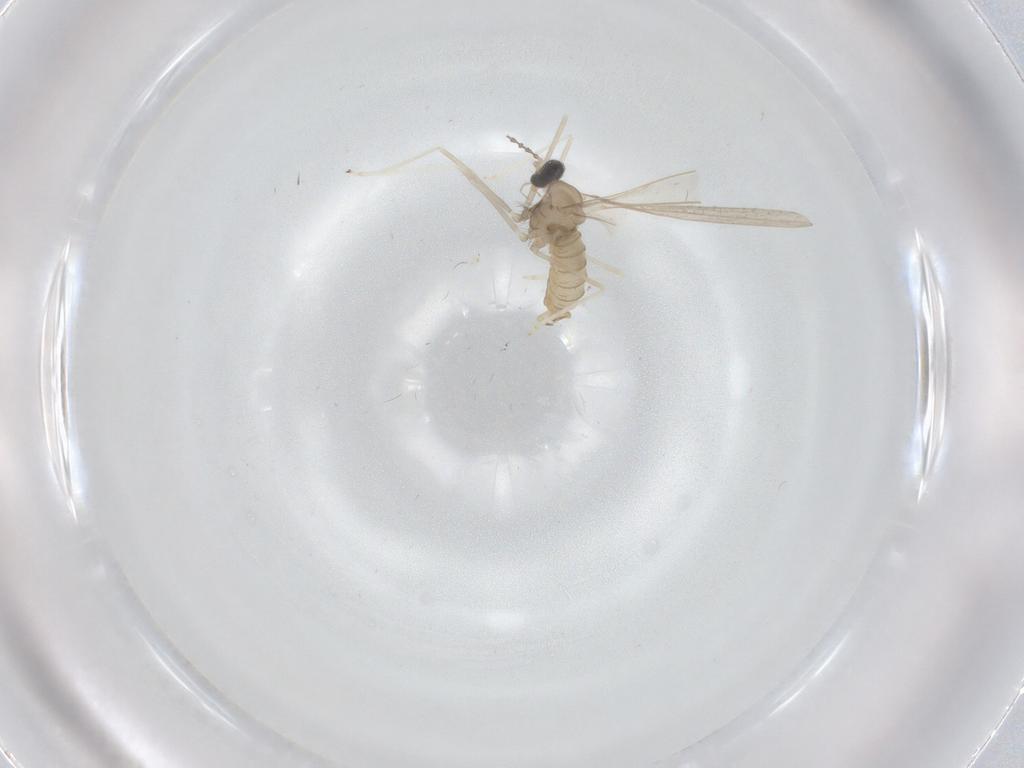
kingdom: Animalia
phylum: Arthropoda
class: Insecta
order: Diptera
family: Cecidomyiidae
